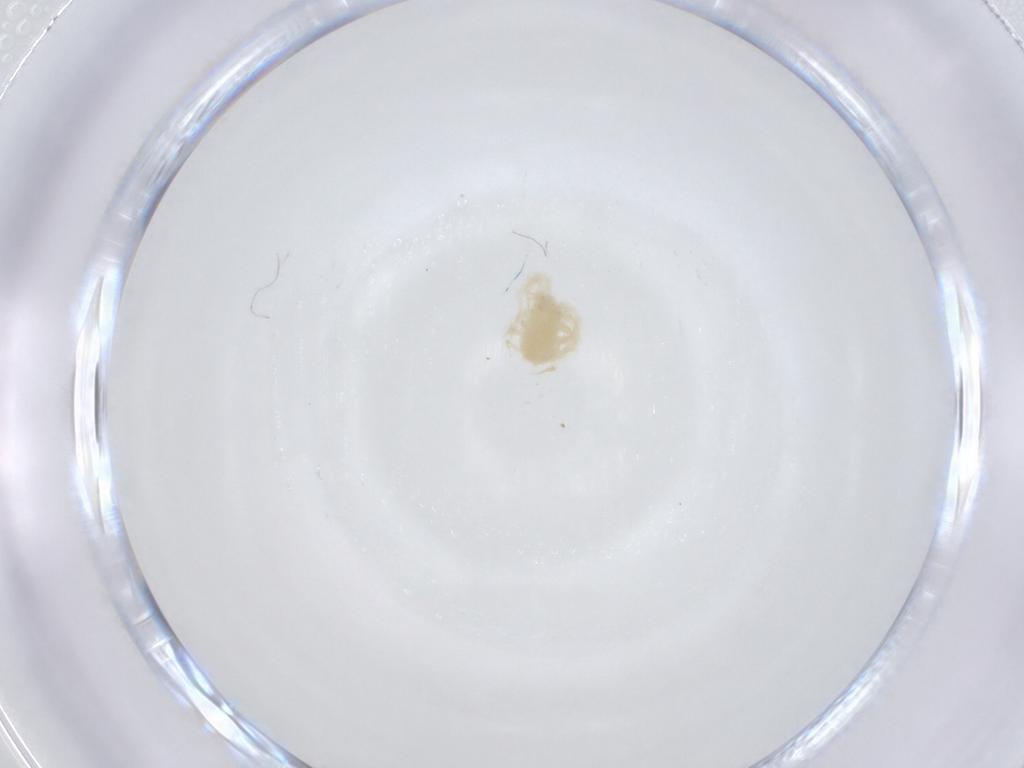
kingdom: Animalia
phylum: Arthropoda
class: Arachnida
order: Trombidiformes
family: Anystidae
